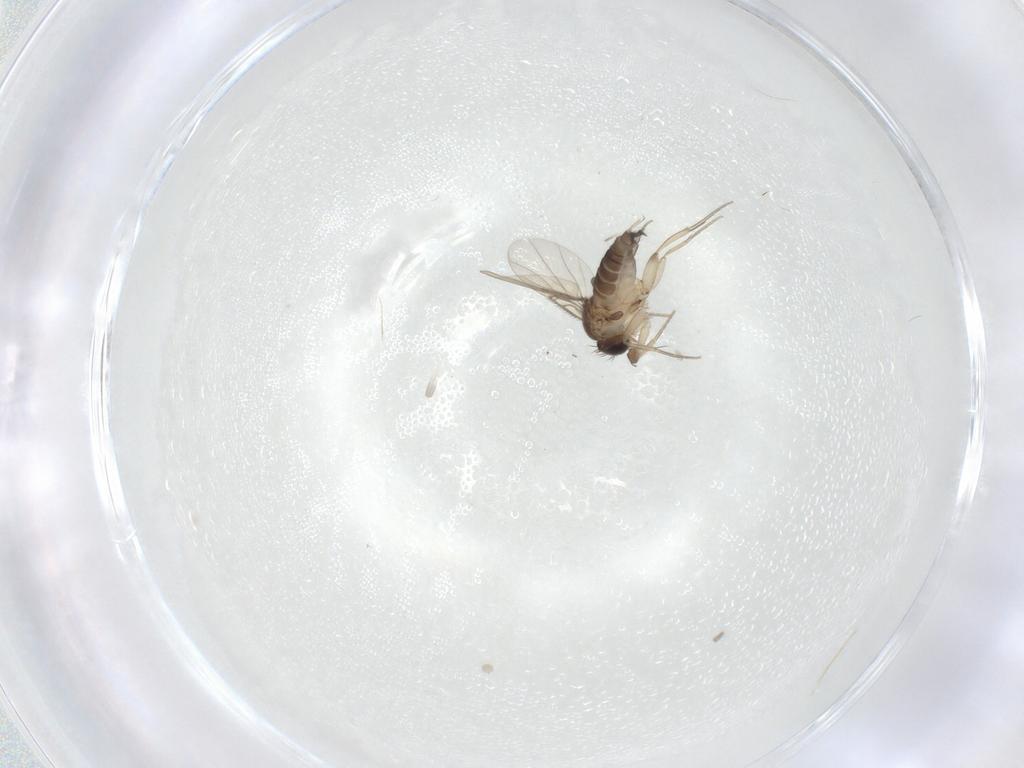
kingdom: Animalia
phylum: Arthropoda
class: Insecta
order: Diptera
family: Phoridae
